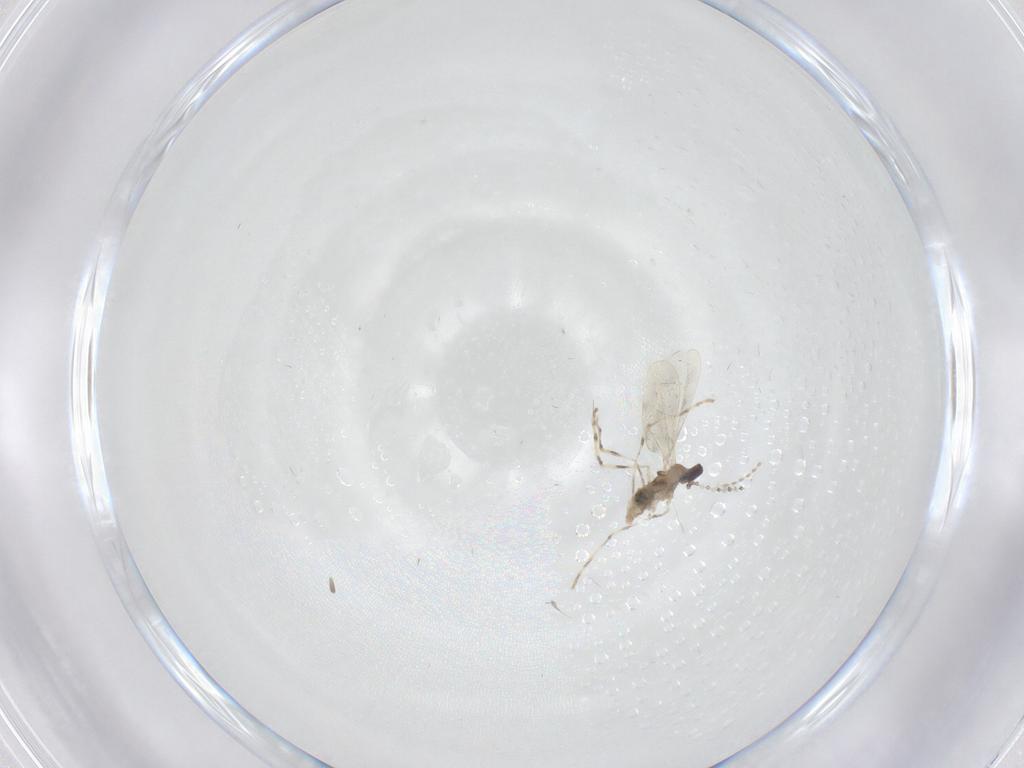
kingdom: Animalia
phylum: Arthropoda
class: Insecta
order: Diptera
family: Cecidomyiidae
